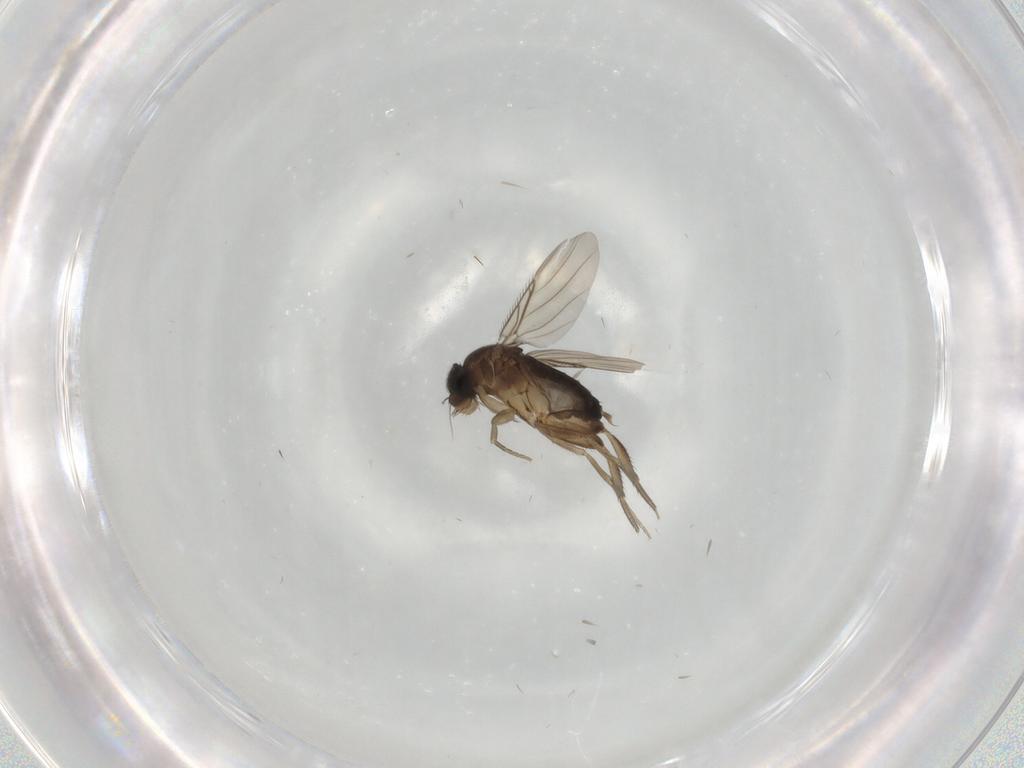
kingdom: Animalia
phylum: Arthropoda
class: Insecta
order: Diptera
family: Phoridae
